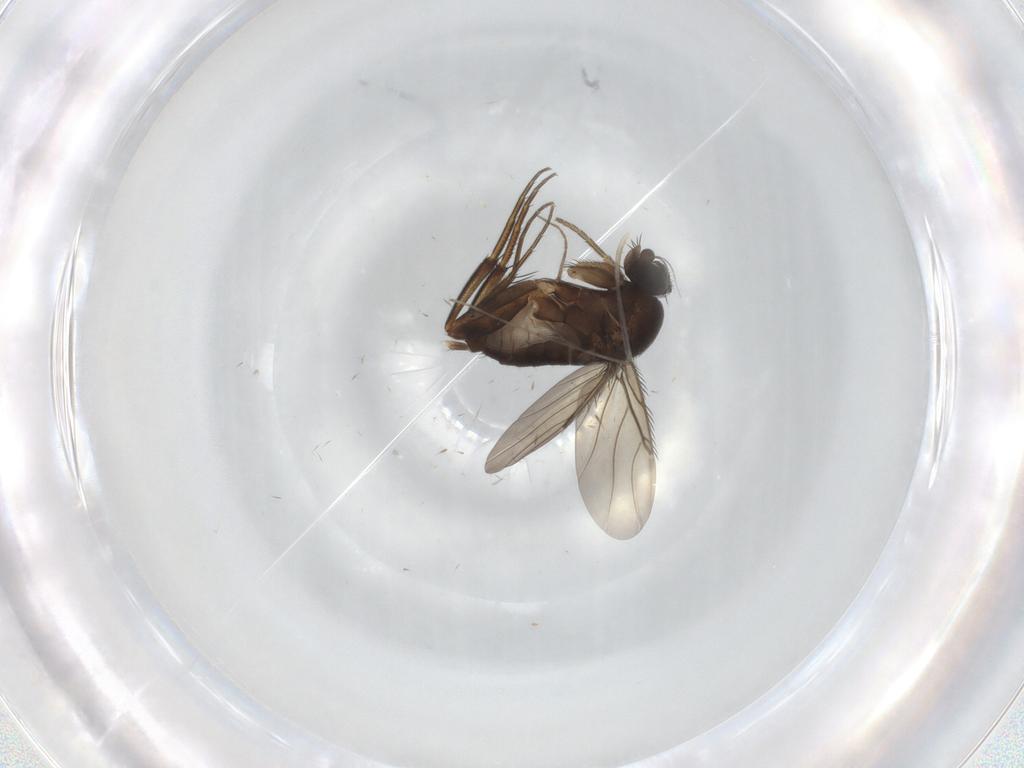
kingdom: Animalia
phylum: Arthropoda
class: Insecta
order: Diptera
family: Phoridae
